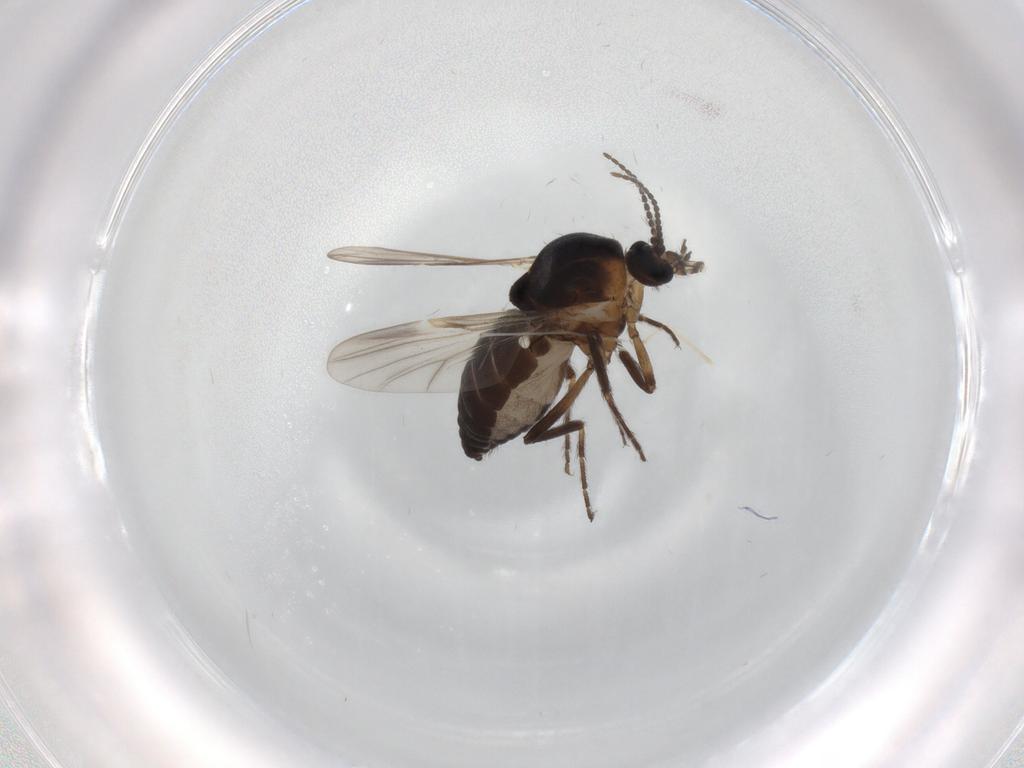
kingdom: Animalia
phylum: Arthropoda
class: Insecta
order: Diptera
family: Ceratopogonidae
